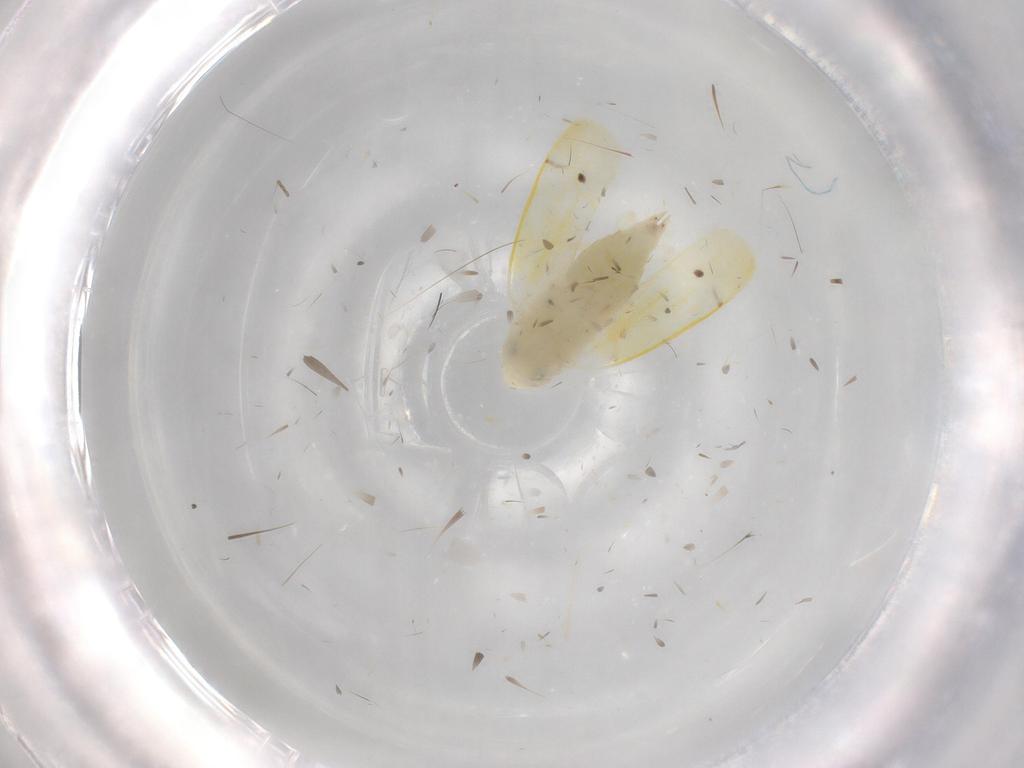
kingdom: Animalia
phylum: Arthropoda
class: Insecta
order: Hemiptera
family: Cicadellidae
